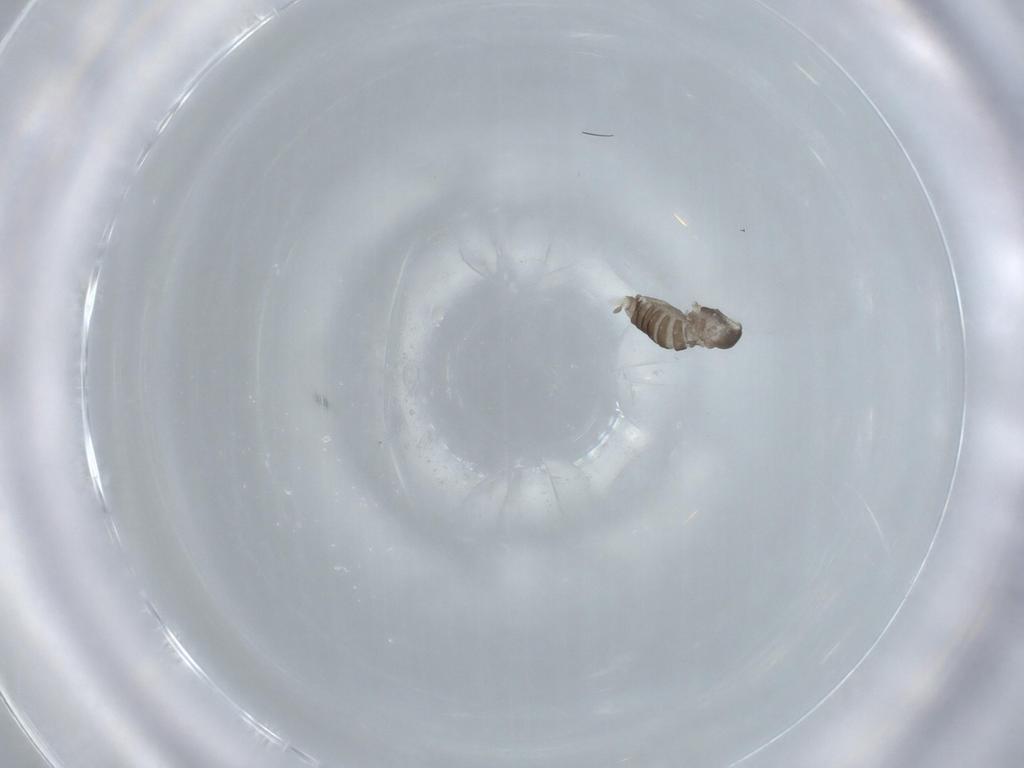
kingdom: Animalia
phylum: Arthropoda
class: Insecta
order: Diptera
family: Cecidomyiidae
